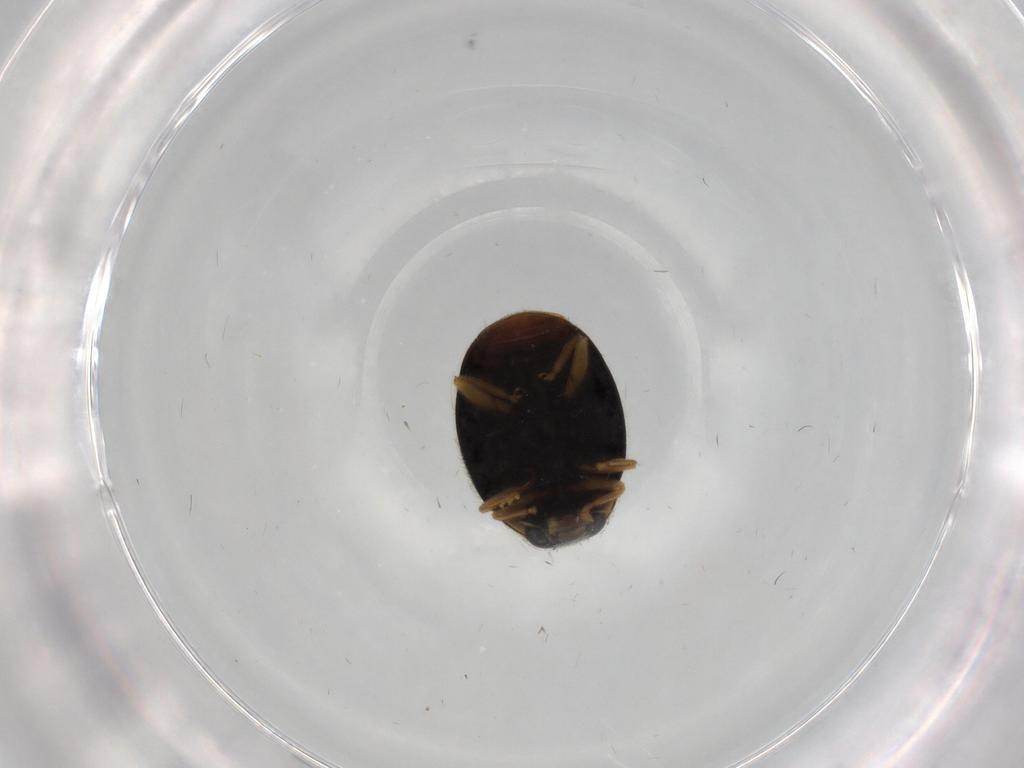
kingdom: Animalia
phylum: Arthropoda
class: Insecta
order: Coleoptera
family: Coccinellidae
